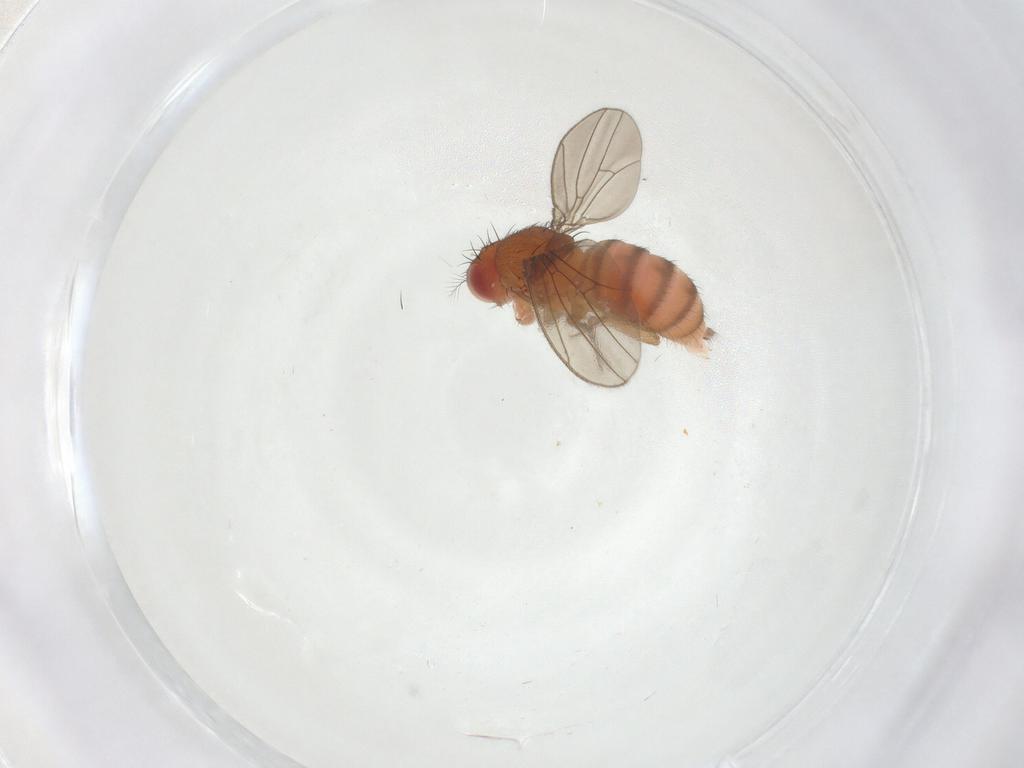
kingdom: Animalia
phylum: Arthropoda
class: Insecta
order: Diptera
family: Drosophilidae
